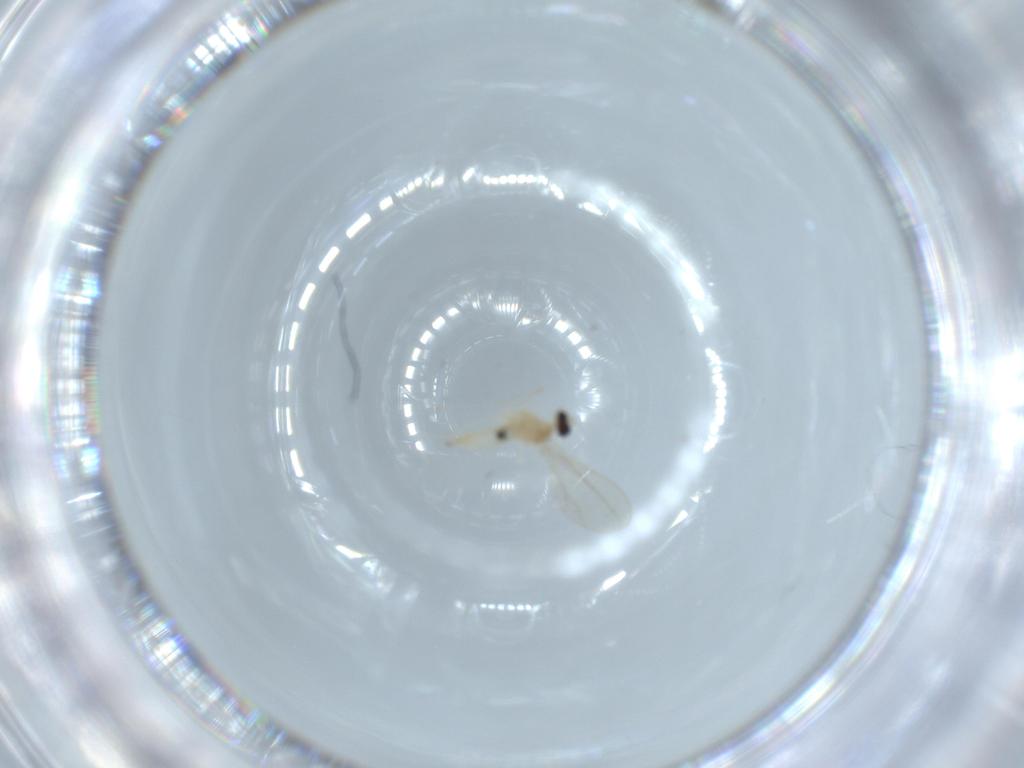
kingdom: Animalia
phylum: Arthropoda
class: Insecta
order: Diptera
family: Cecidomyiidae
